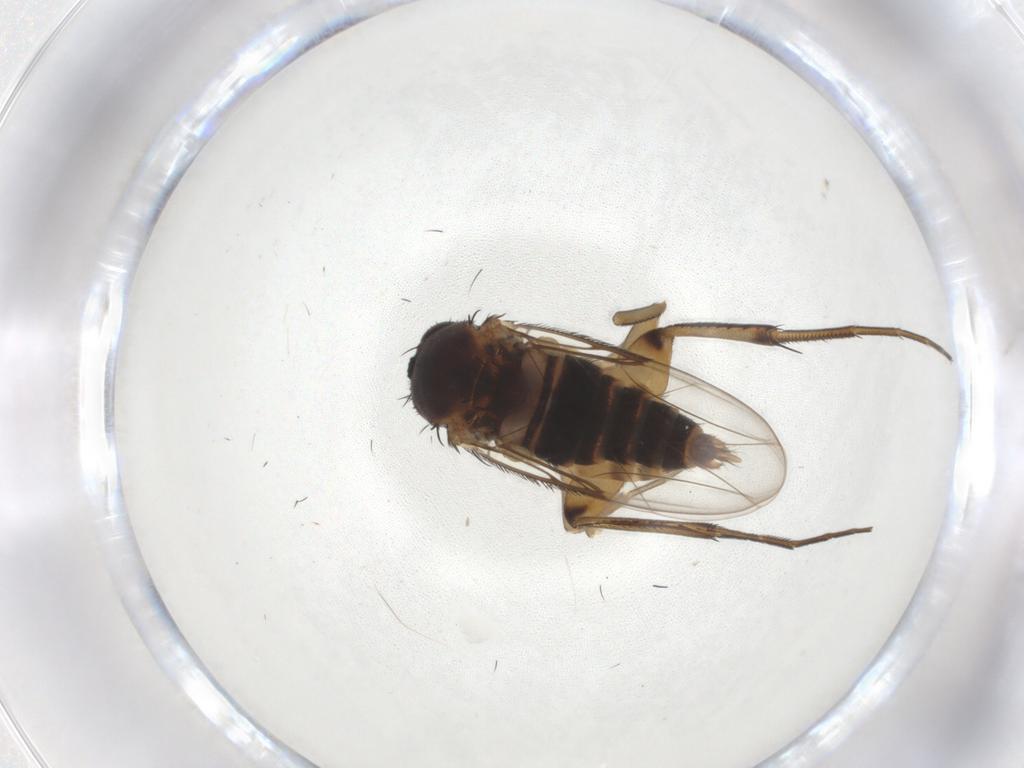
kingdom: Animalia
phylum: Arthropoda
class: Insecta
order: Diptera
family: Phoridae
